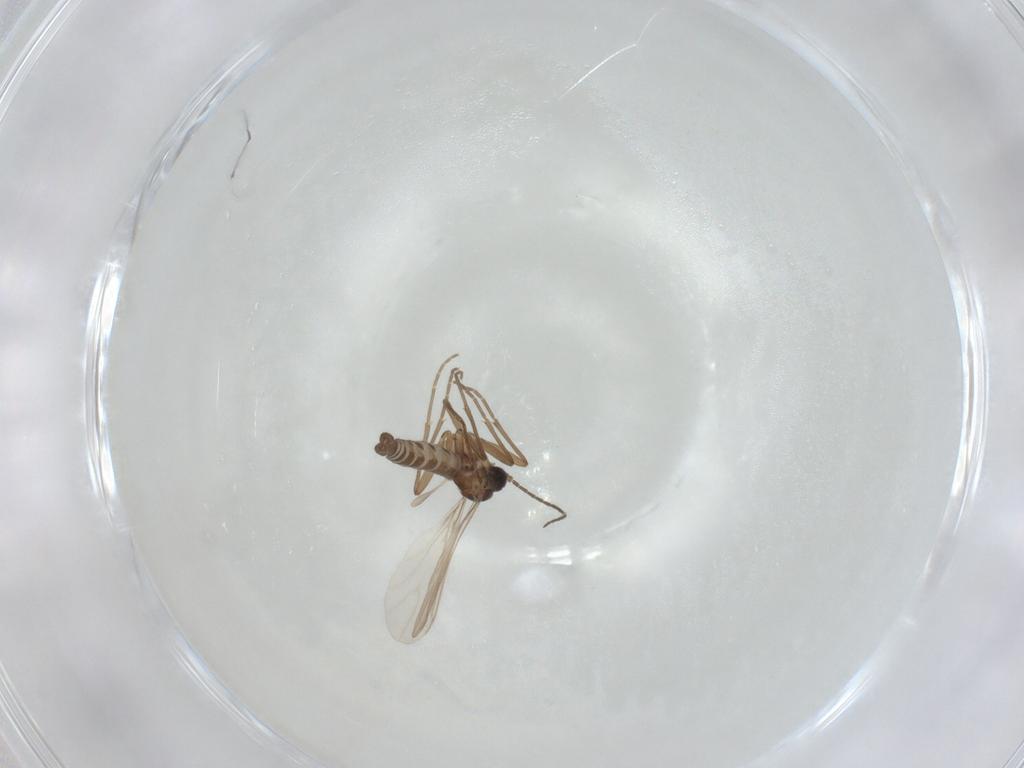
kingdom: Animalia
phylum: Arthropoda
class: Insecta
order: Diptera
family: Sciaridae
